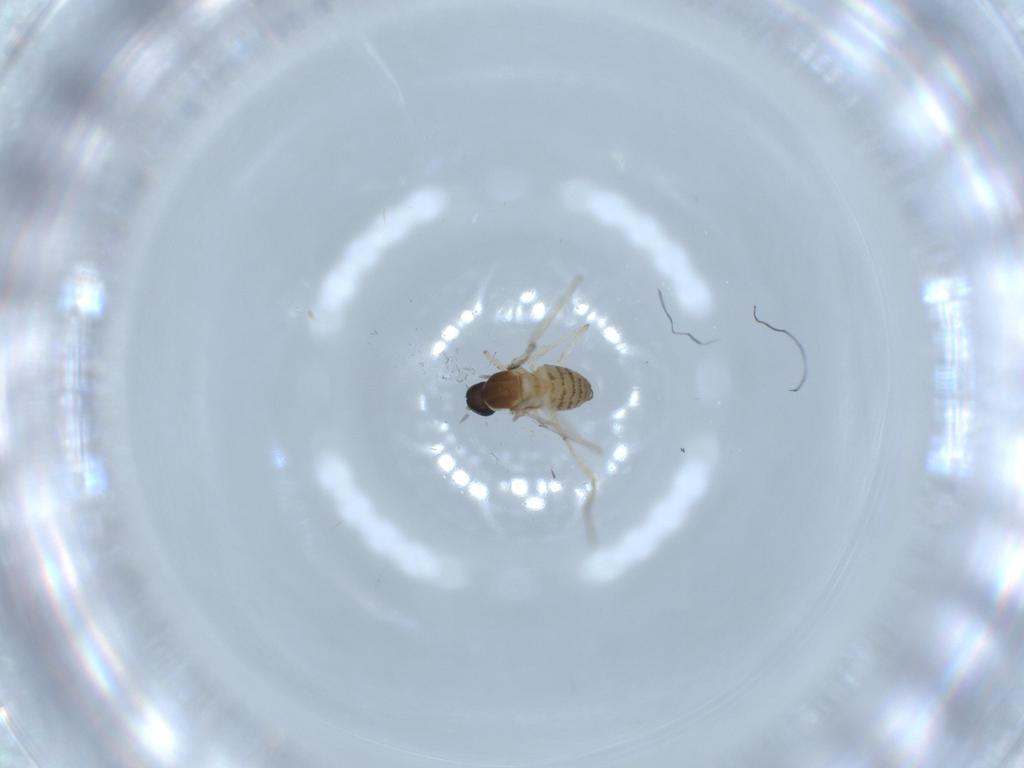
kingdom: Animalia
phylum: Arthropoda
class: Insecta
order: Diptera
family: Cecidomyiidae
